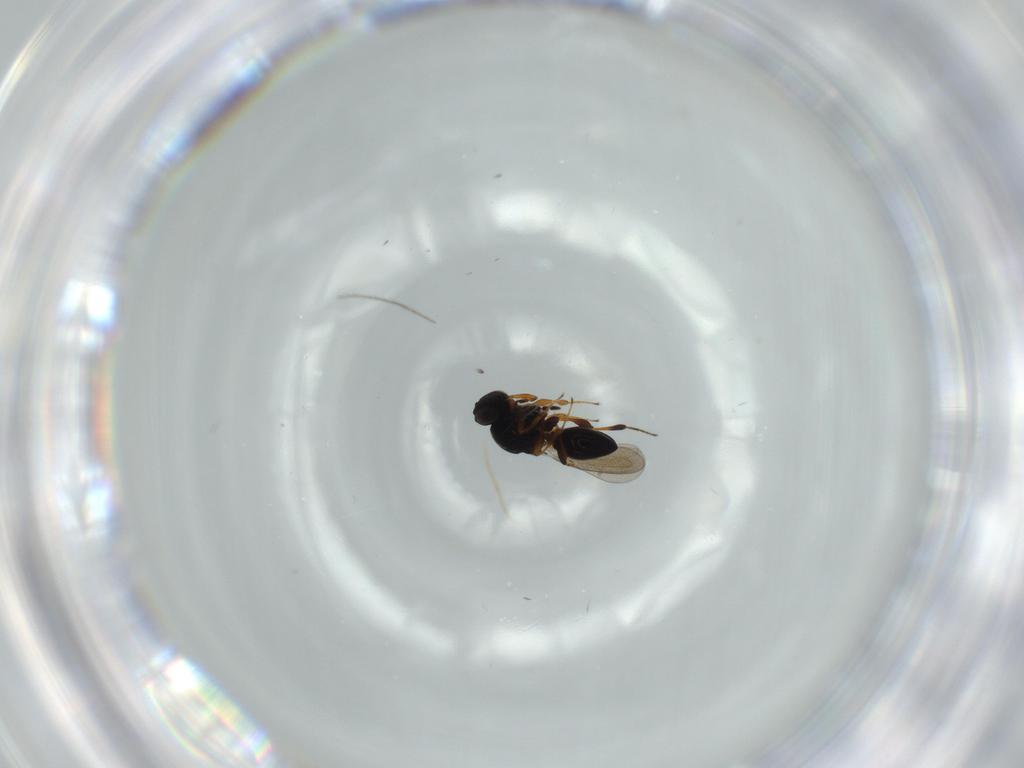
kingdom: Animalia
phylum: Arthropoda
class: Insecta
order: Hymenoptera
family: Platygastridae
